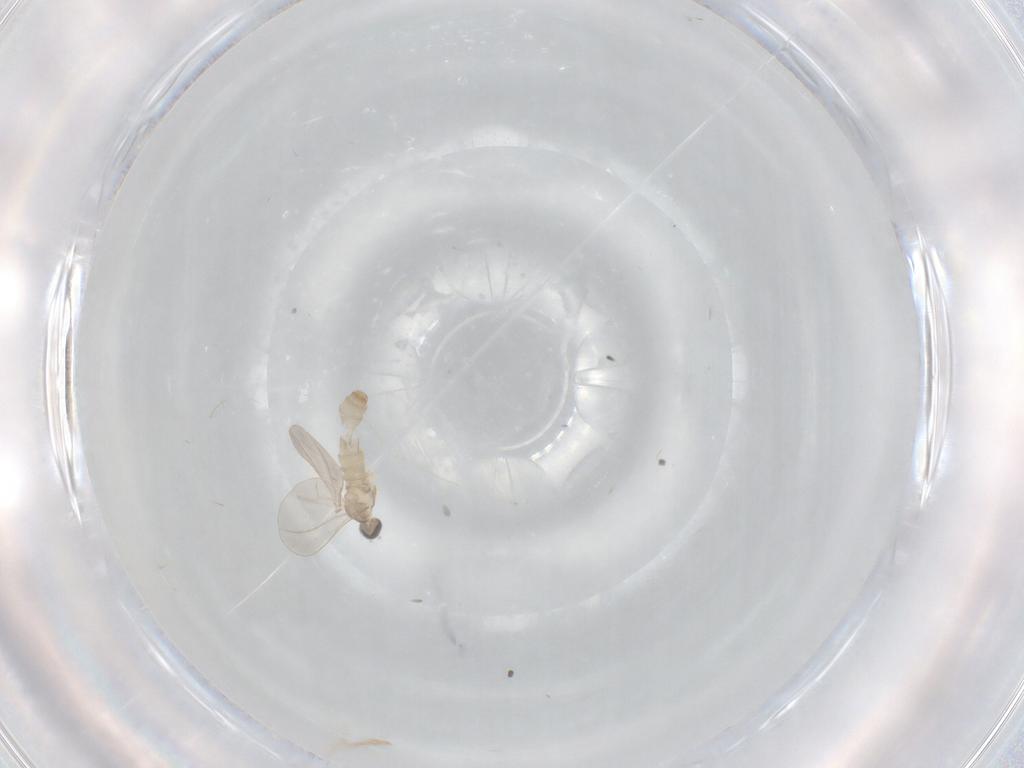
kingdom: Animalia
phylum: Arthropoda
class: Insecta
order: Diptera
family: Cecidomyiidae
